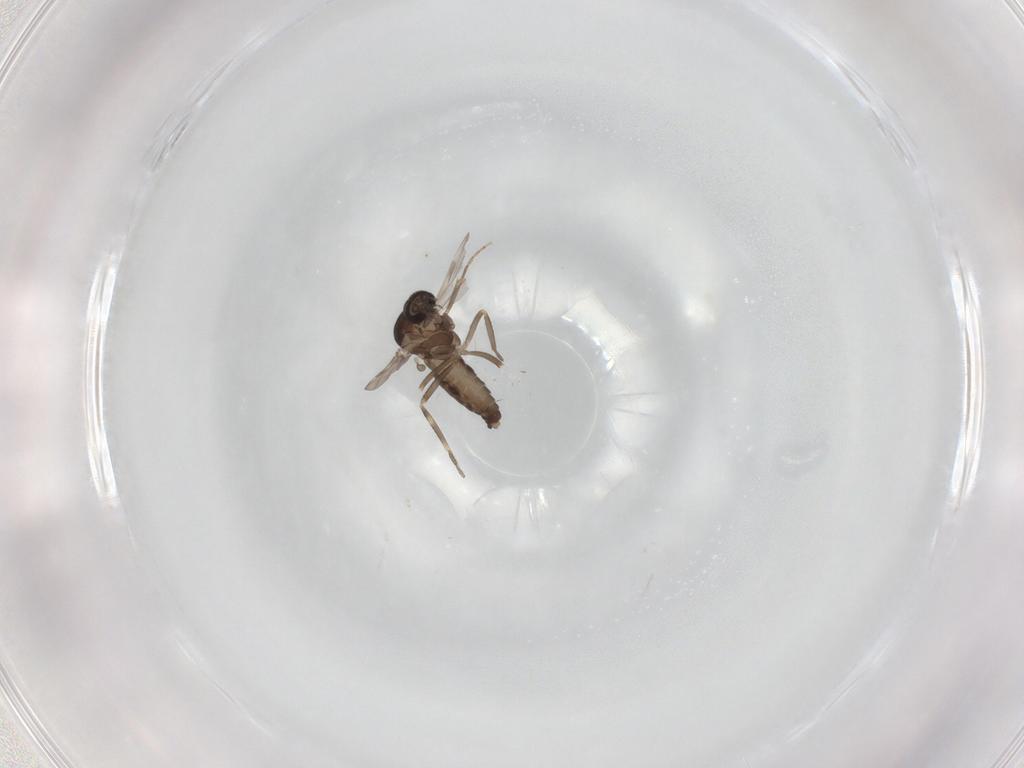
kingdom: Animalia
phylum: Arthropoda
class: Insecta
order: Diptera
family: Ceratopogonidae
